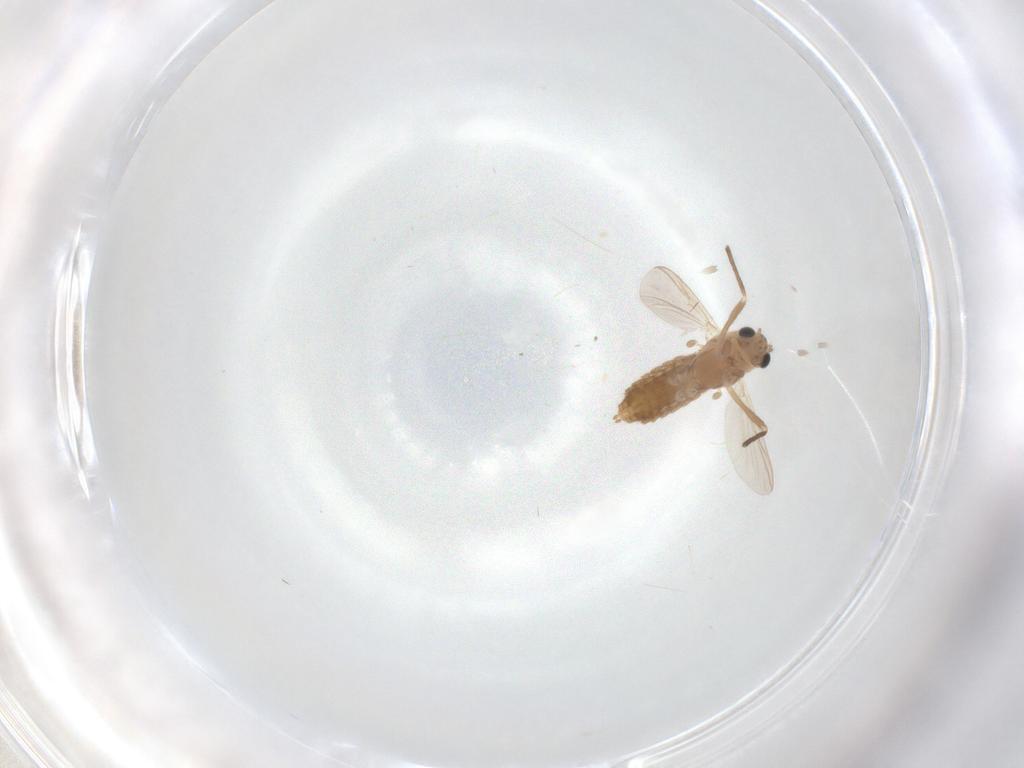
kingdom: Animalia
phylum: Arthropoda
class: Insecta
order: Diptera
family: Chironomidae
